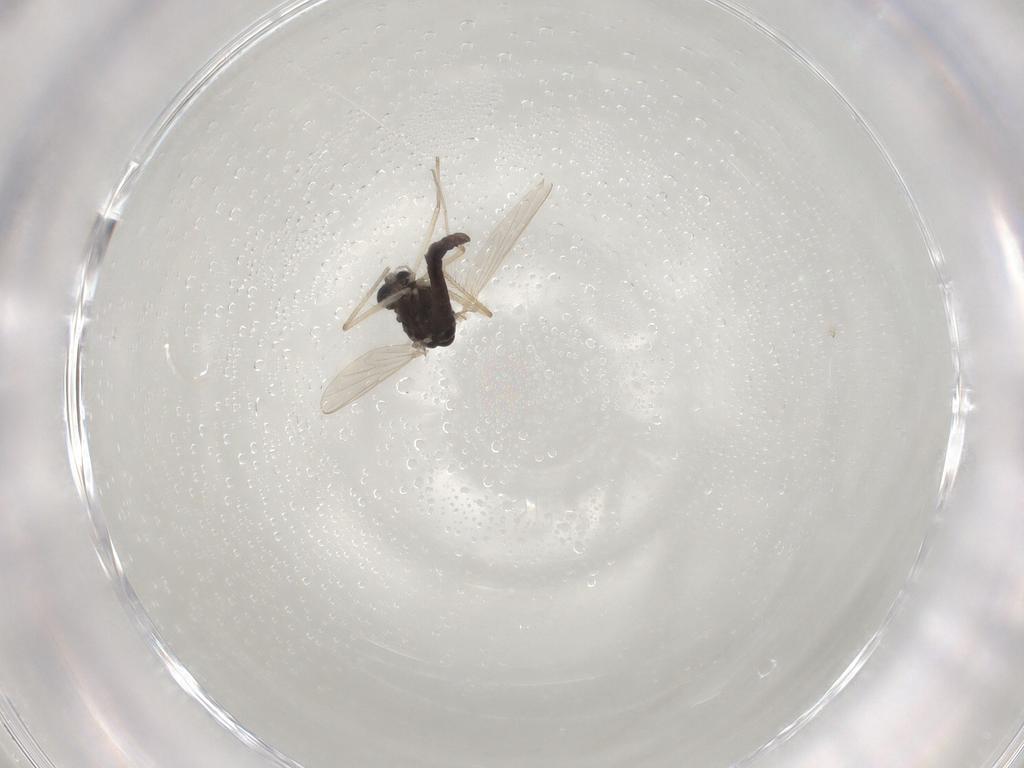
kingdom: Animalia
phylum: Arthropoda
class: Insecta
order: Diptera
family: Chironomidae
